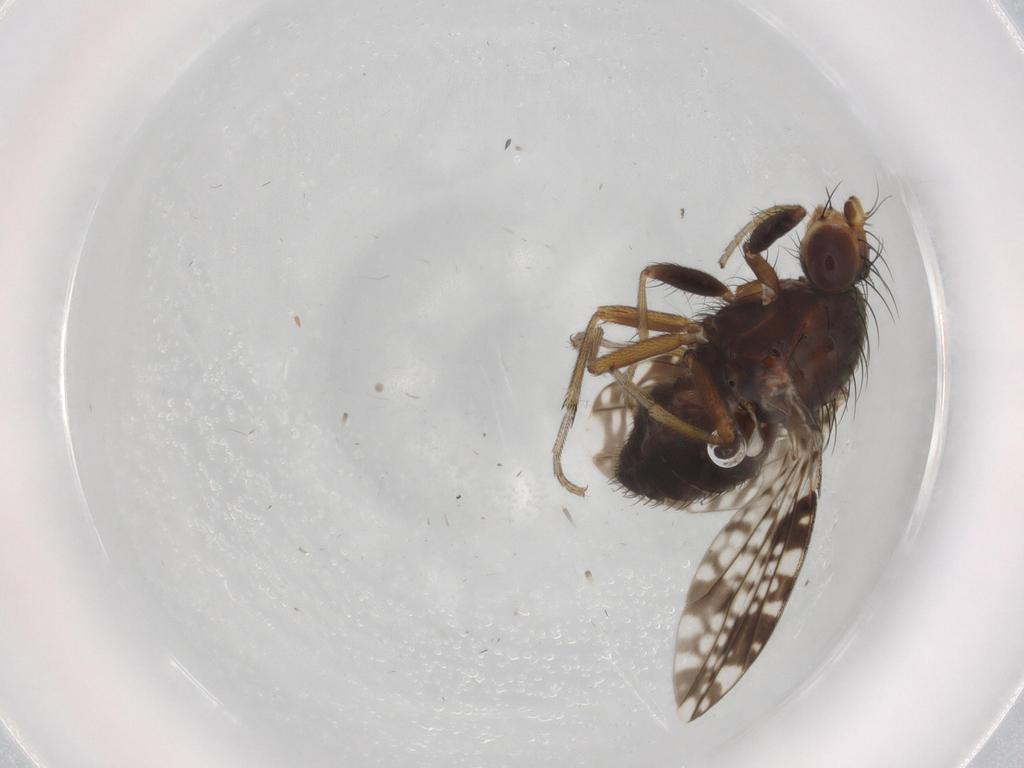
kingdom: Animalia
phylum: Arthropoda
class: Insecta
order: Diptera
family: Tephritidae
